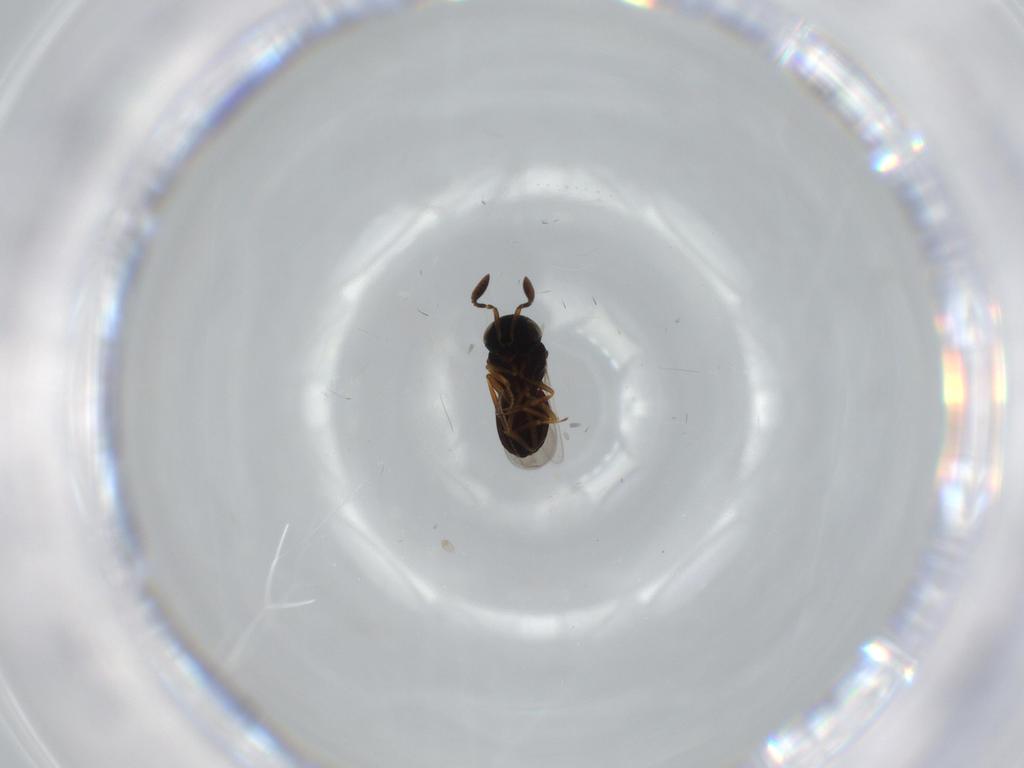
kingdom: Animalia
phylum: Arthropoda
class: Insecta
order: Hymenoptera
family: Scelionidae
